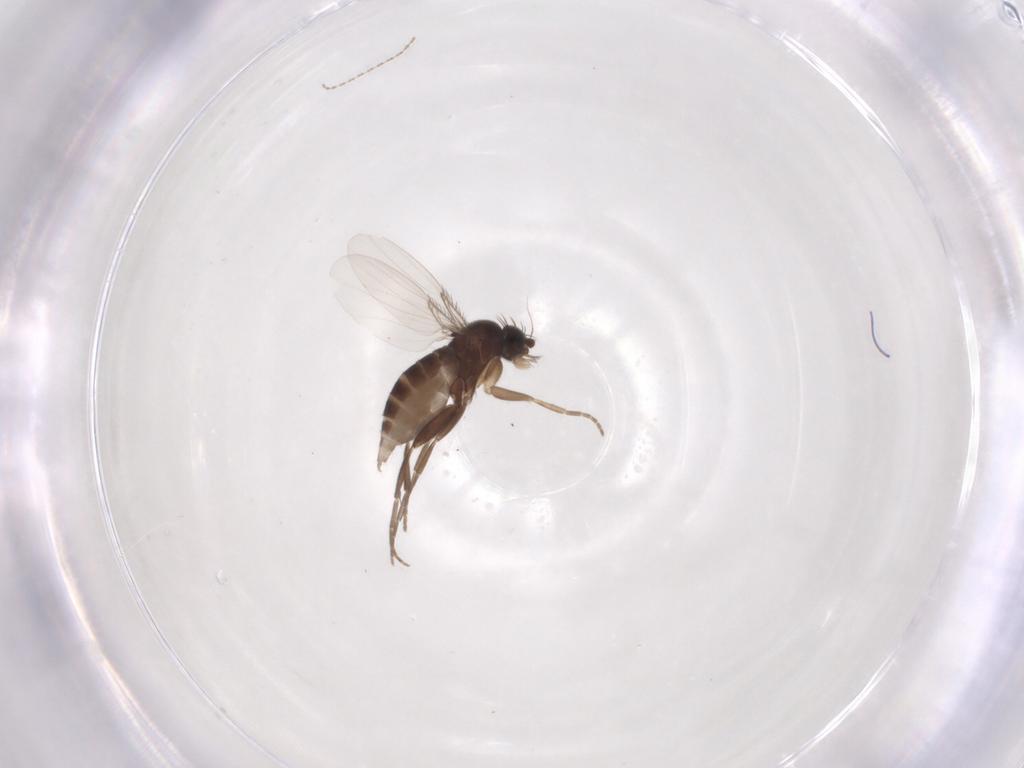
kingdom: Animalia
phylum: Arthropoda
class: Insecta
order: Diptera
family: Phoridae
